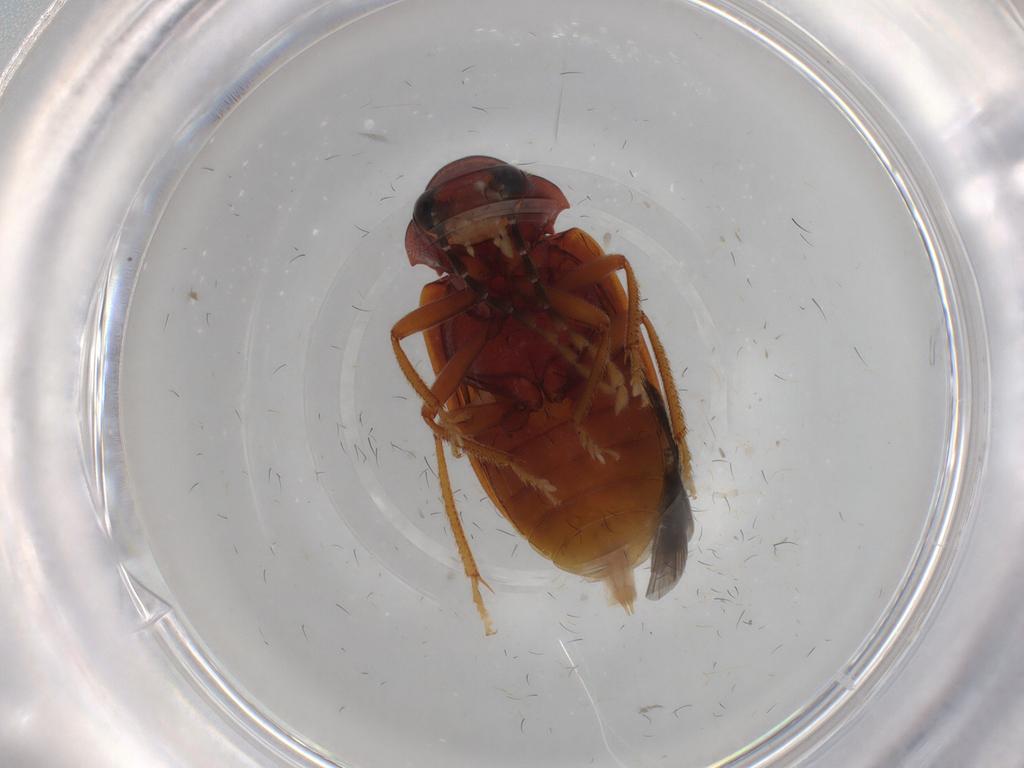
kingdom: Animalia
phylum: Arthropoda
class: Insecta
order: Coleoptera
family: Ptilodactylidae
